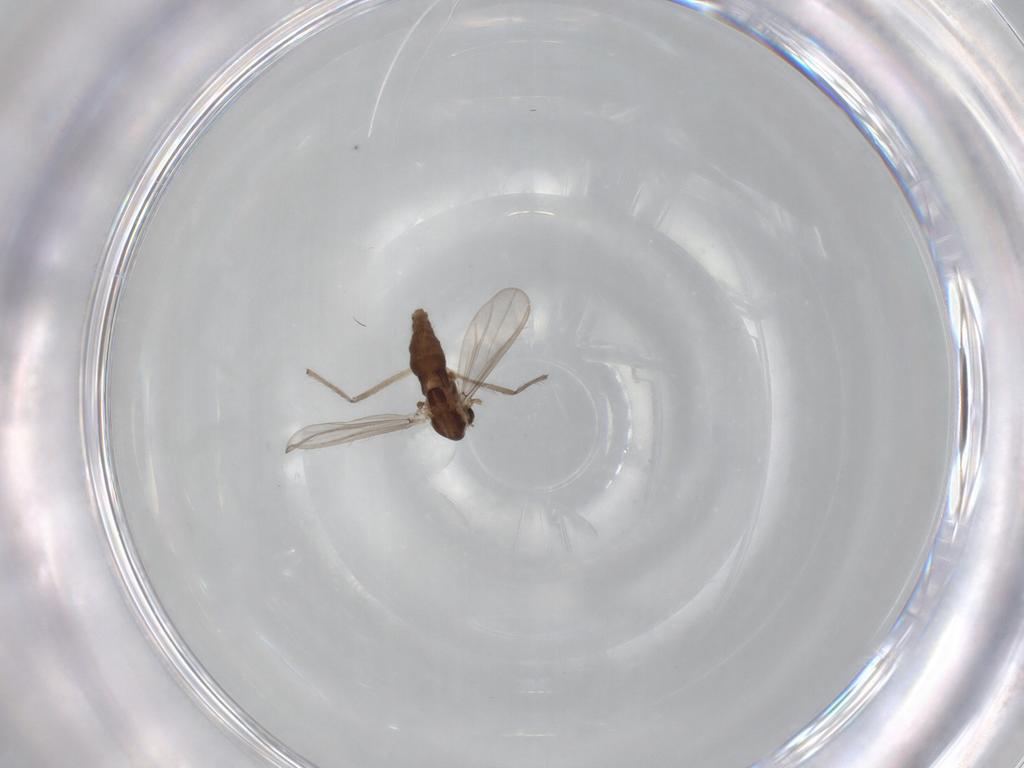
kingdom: Animalia
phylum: Arthropoda
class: Insecta
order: Diptera
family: Chironomidae
